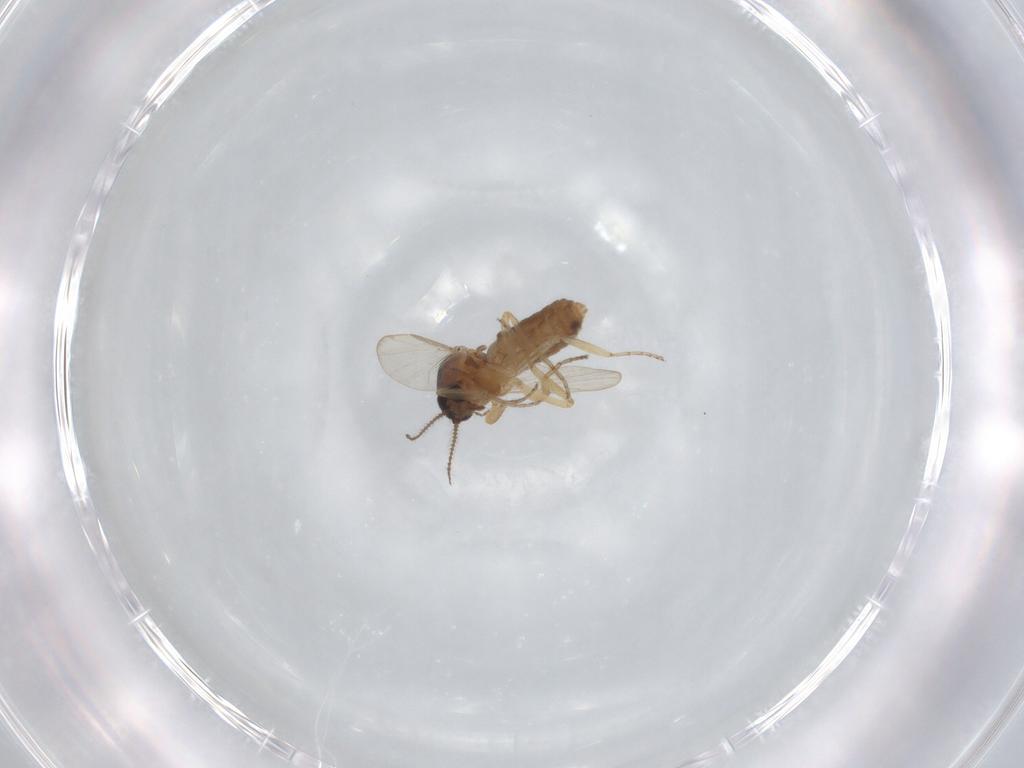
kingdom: Animalia
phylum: Arthropoda
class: Insecta
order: Diptera
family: Ceratopogonidae
